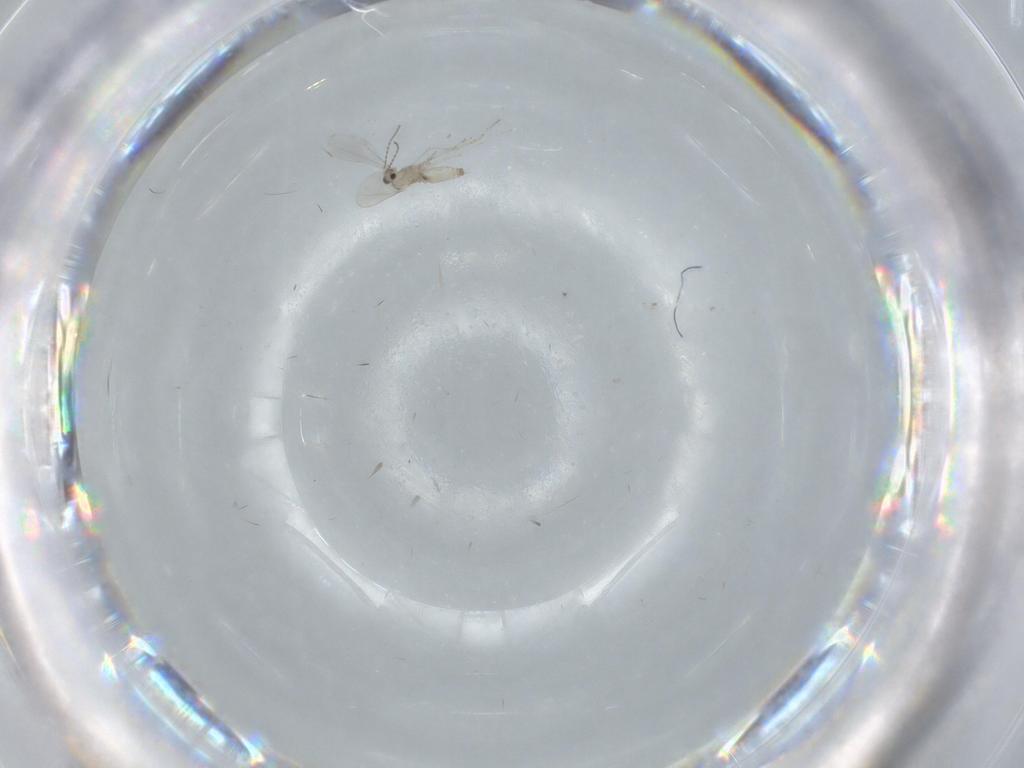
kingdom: Animalia
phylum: Arthropoda
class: Insecta
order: Diptera
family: Cecidomyiidae
